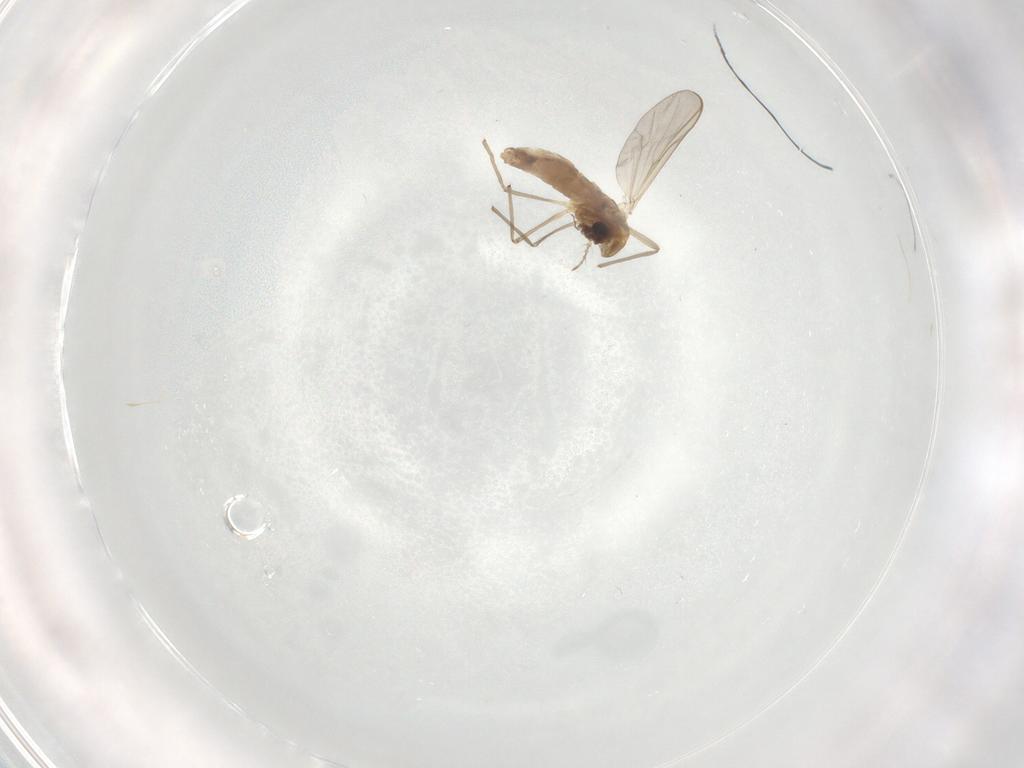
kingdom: Animalia
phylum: Arthropoda
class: Insecta
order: Diptera
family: Chironomidae
